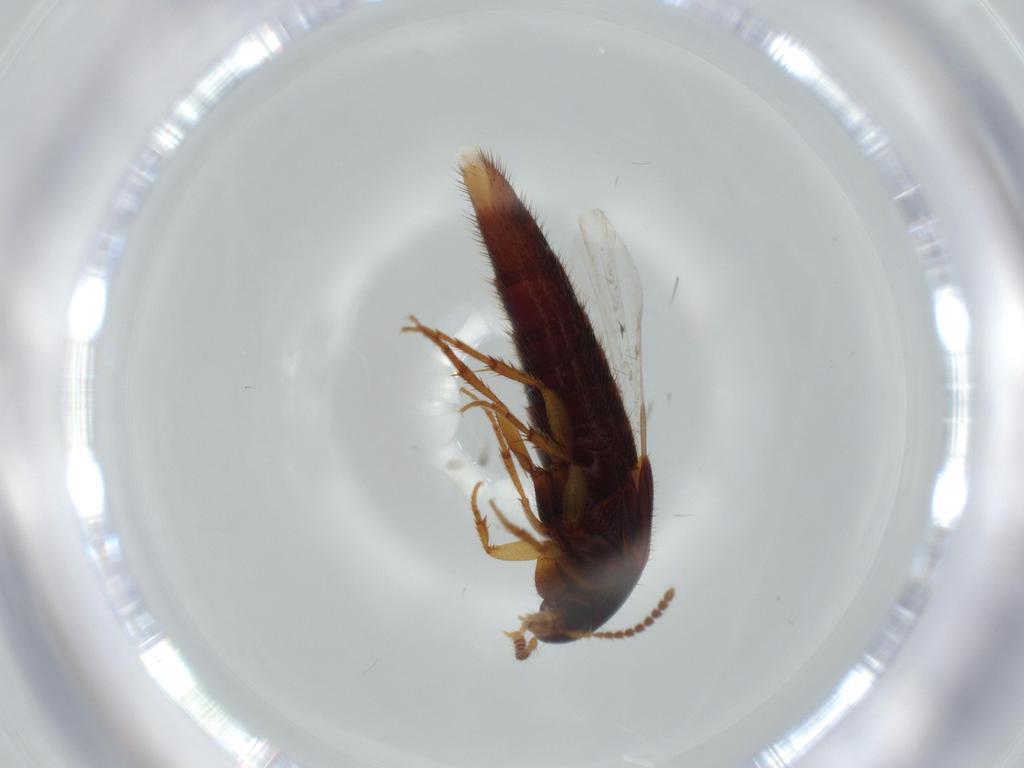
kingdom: Animalia
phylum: Arthropoda
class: Insecta
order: Coleoptera
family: Staphylinidae
